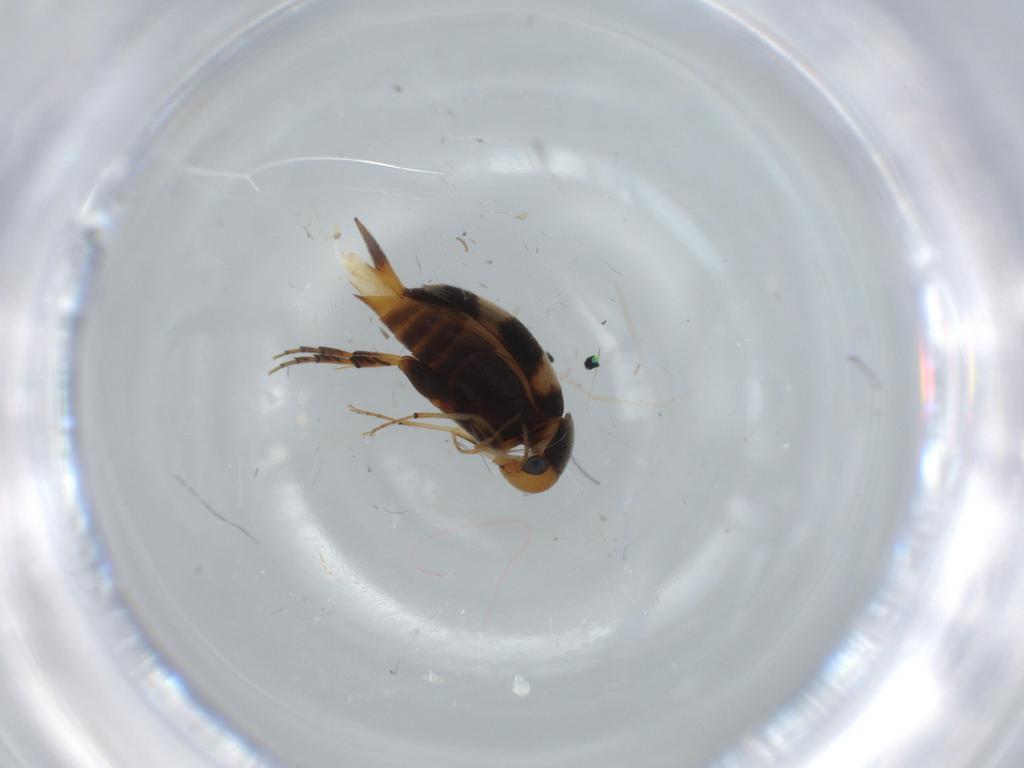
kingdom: Animalia
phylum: Arthropoda
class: Insecta
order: Coleoptera
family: Mordellidae
